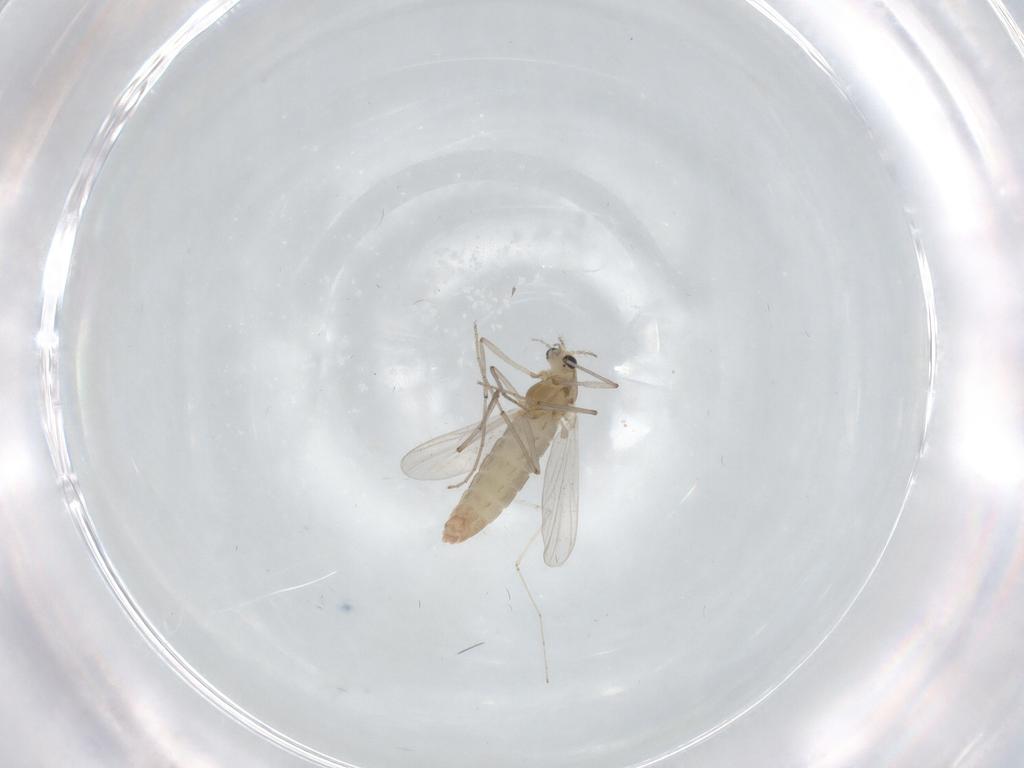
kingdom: Animalia
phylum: Arthropoda
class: Insecta
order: Diptera
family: Chironomidae
